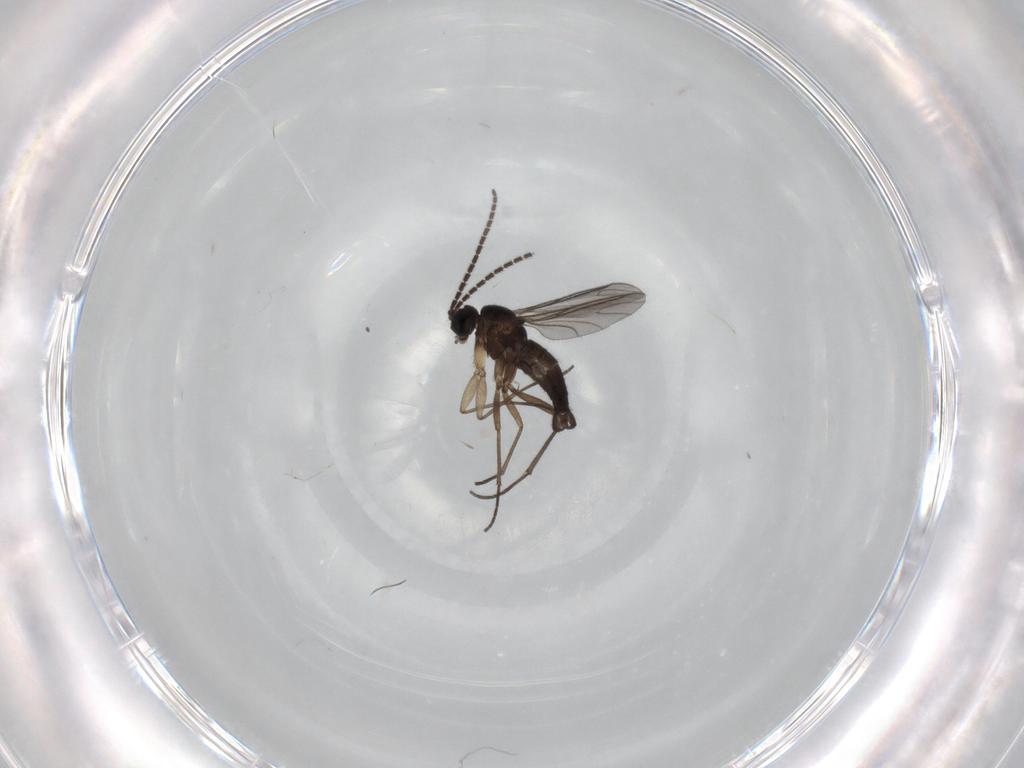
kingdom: Animalia
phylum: Arthropoda
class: Insecta
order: Diptera
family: Sciaridae
